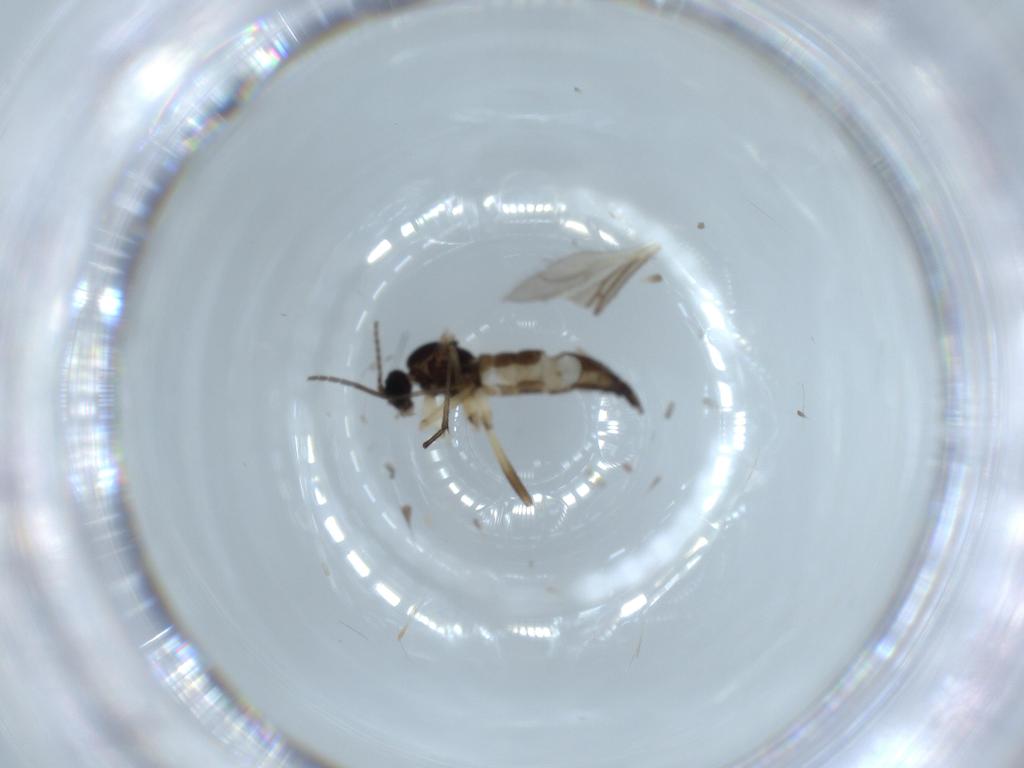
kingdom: Animalia
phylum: Arthropoda
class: Insecta
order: Diptera
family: Sciaridae
